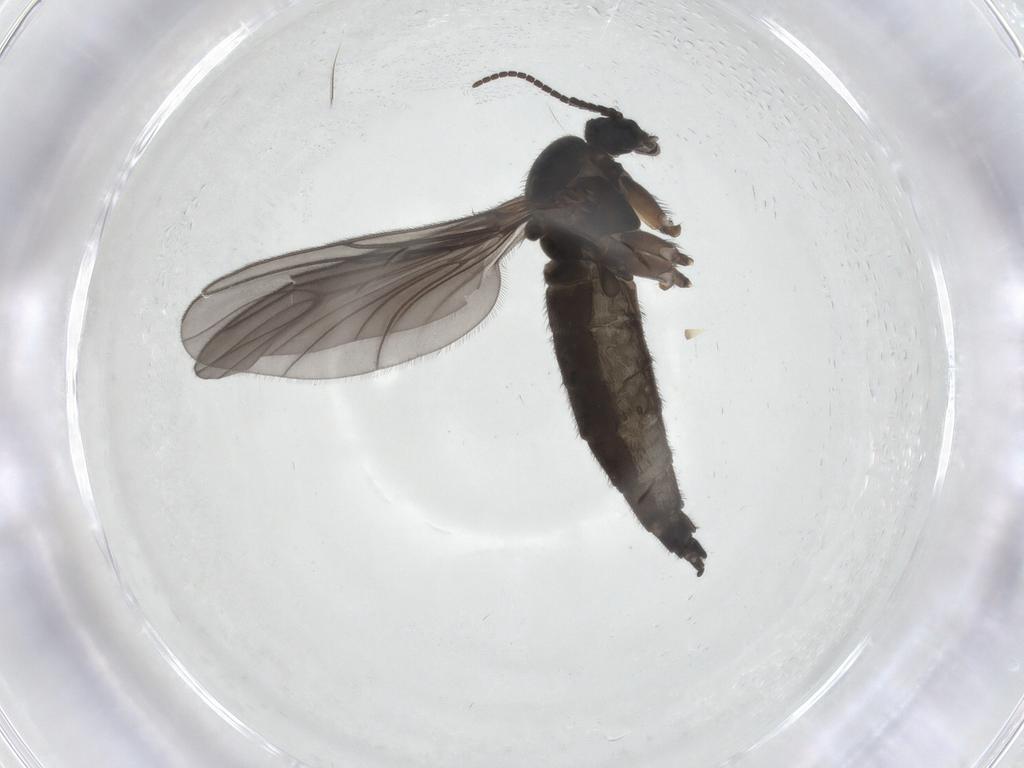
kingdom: Animalia
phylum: Arthropoda
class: Insecta
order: Diptera
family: Sciaridae
